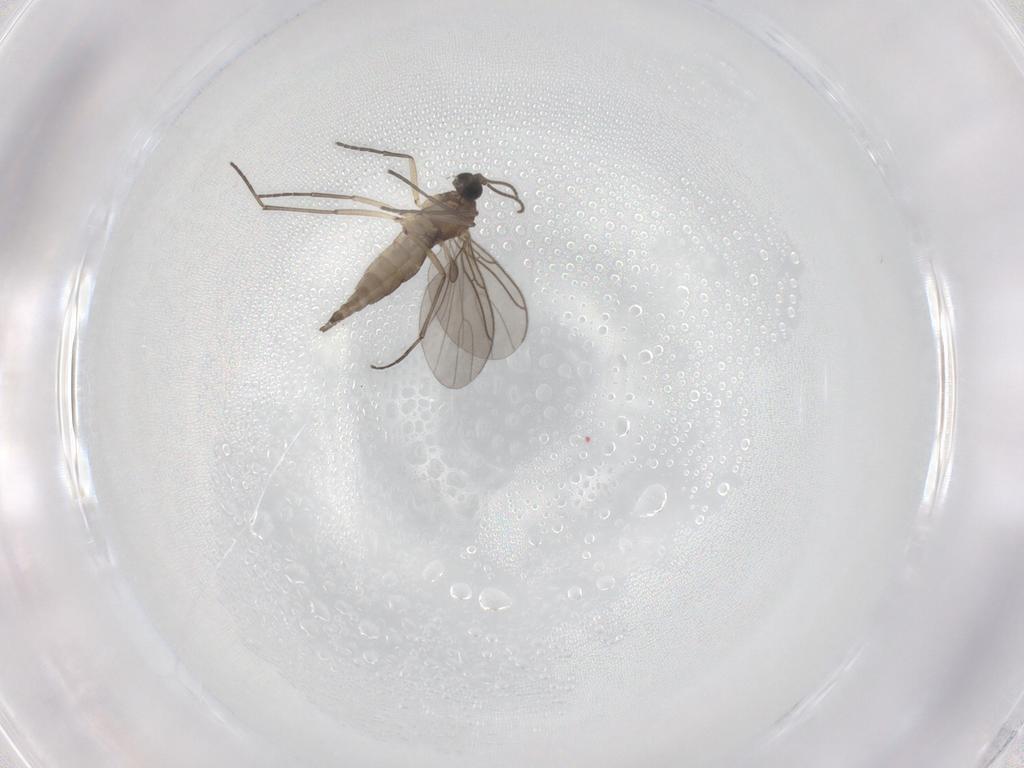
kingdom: Animalia
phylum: Arthropoda
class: Insecta
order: Diptera
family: Sciaridae
